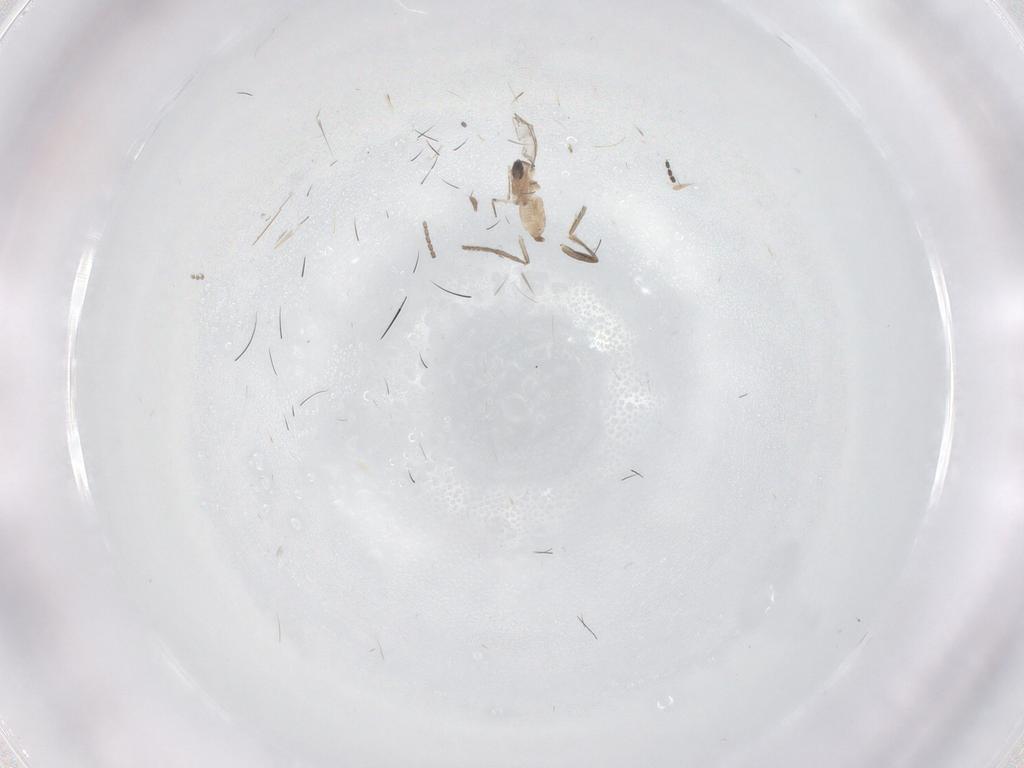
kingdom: Animalia
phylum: Arthropoda
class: Insecta
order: Diptera
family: Cecidomyiidae
